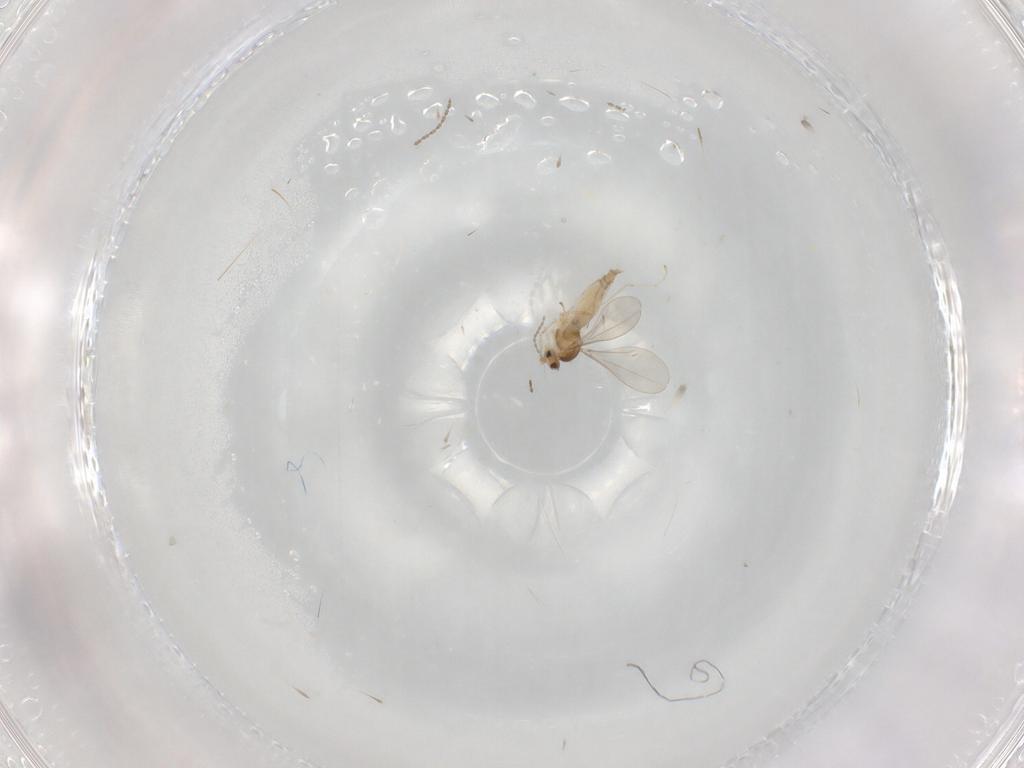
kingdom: Animalia
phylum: Arthropoda
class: Insecta
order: Diptera
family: Cecidomyiidae
